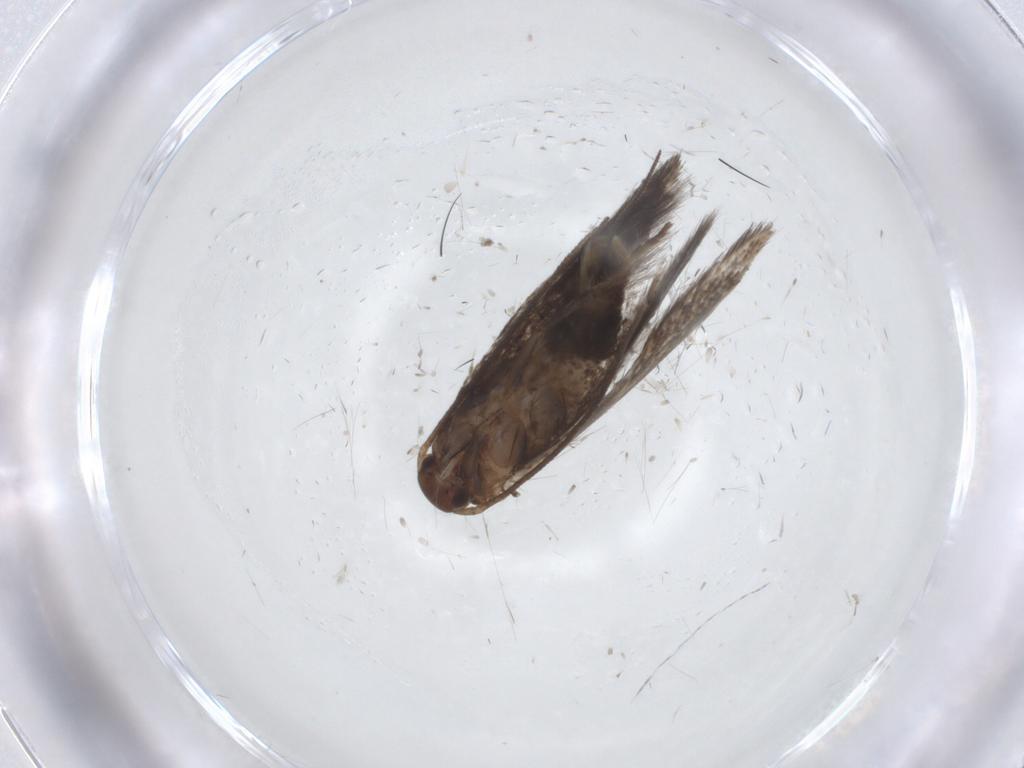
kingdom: Animalia
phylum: Arthropoda
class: Insecta
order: Lepidoptera
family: Elachistidae
